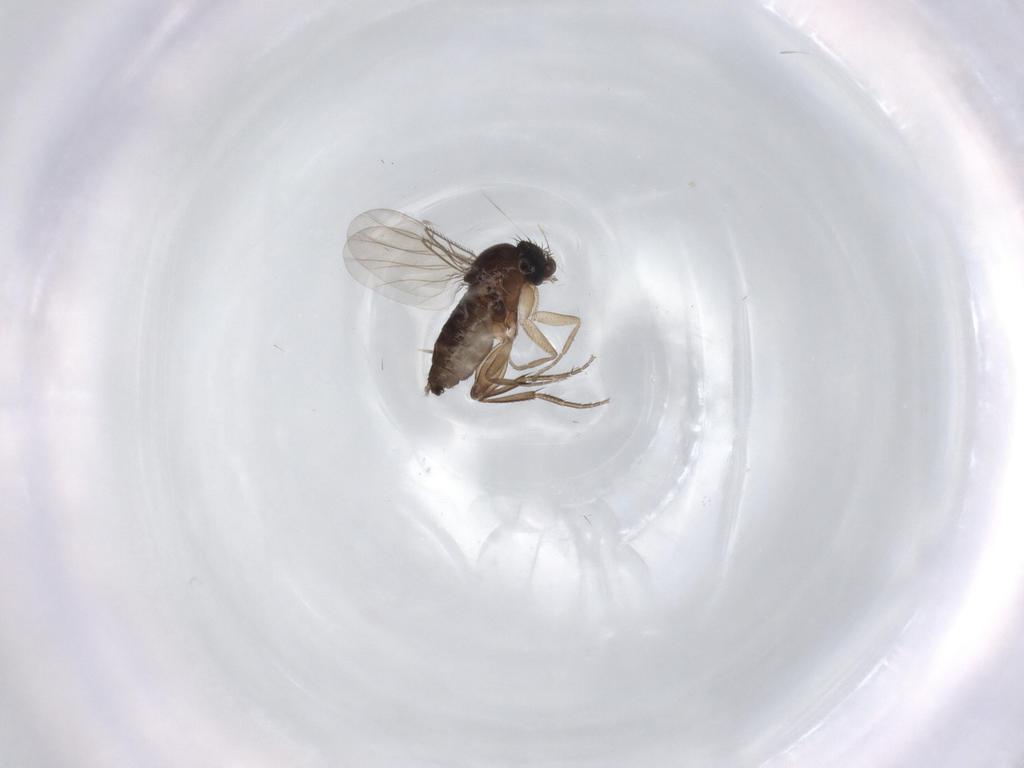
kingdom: Animalia
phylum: Arthropoda
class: Insecta
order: Diptera
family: Phoridae
